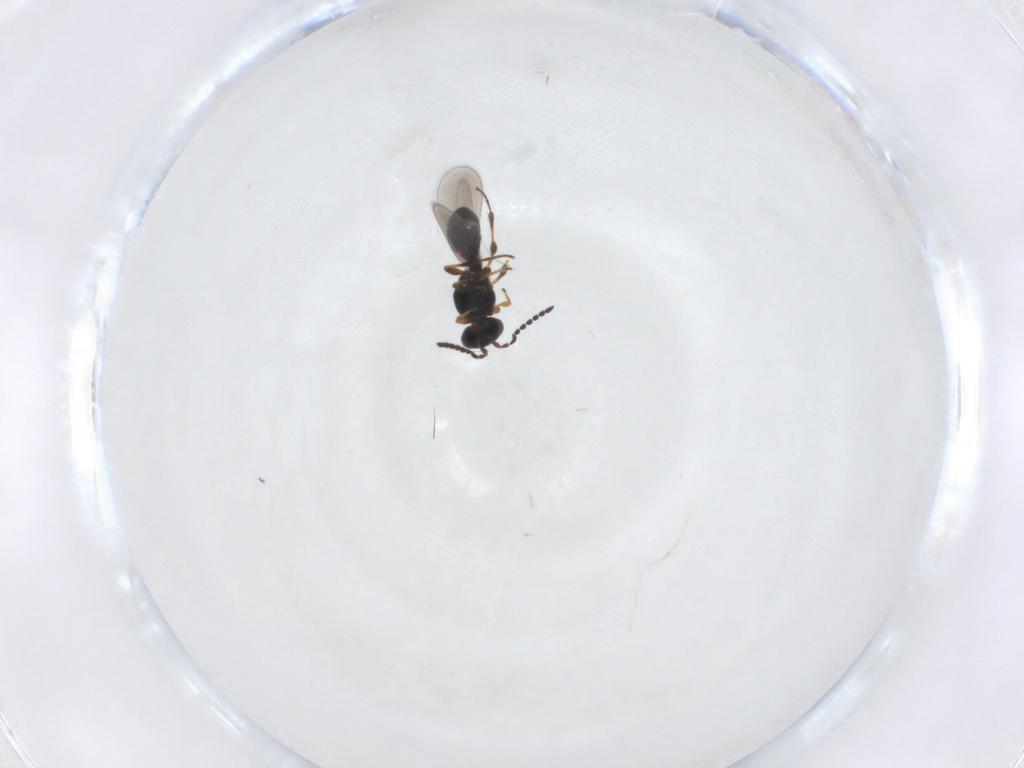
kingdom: Animalia
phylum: Arthropoda
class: Insecta
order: Hymenoptera
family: Platygastridae
